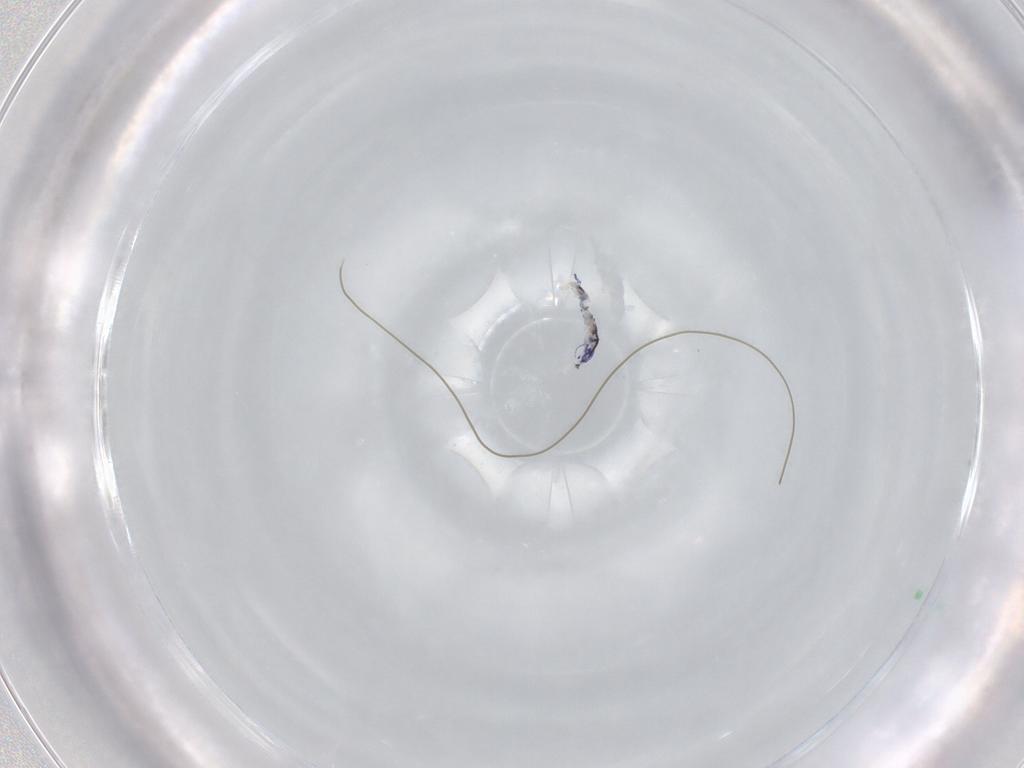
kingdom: Animalia
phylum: Arthropoda
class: Collembola
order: Entomobryomorpha
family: Entomobryidae
